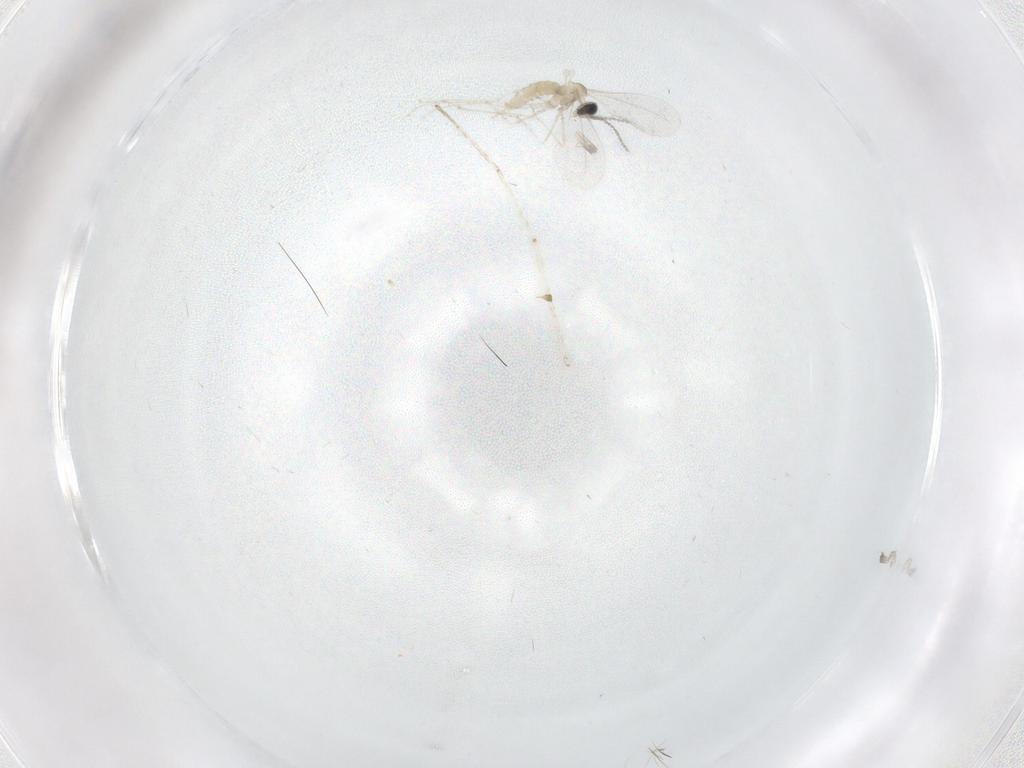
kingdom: Animalia
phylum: Arthropoda
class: Insecta
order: Diptera
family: Cecidomyiidae
